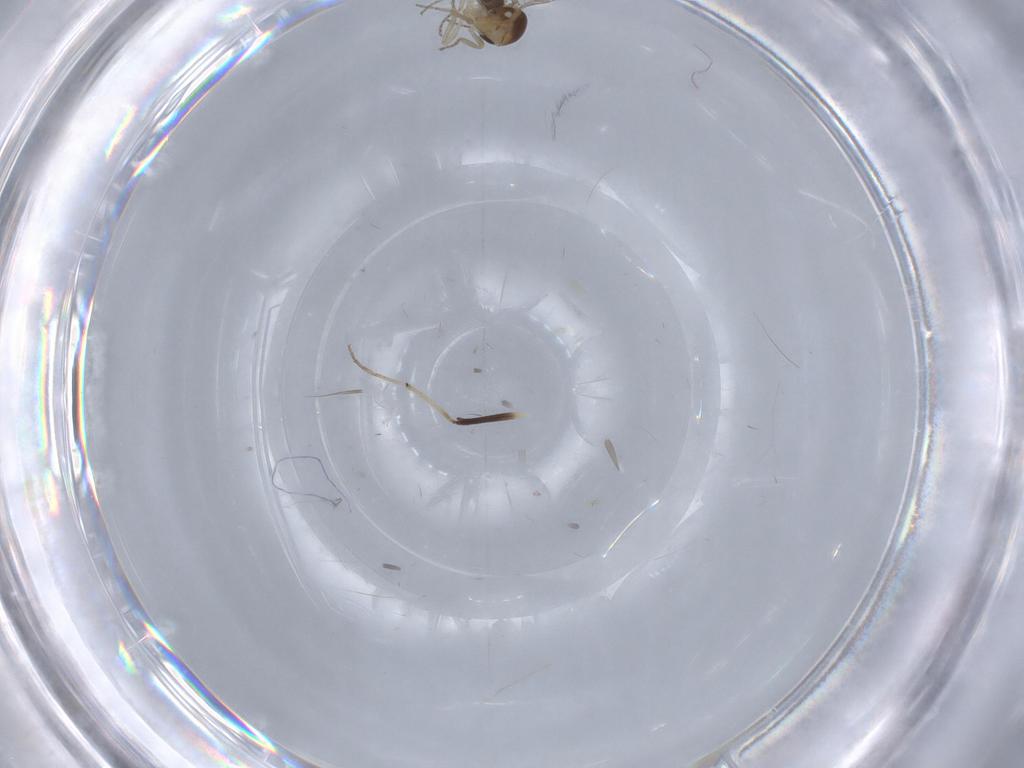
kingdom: Animalia
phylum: Arthropoda
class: Insecta
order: Diptera
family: Ceratopogonidae
